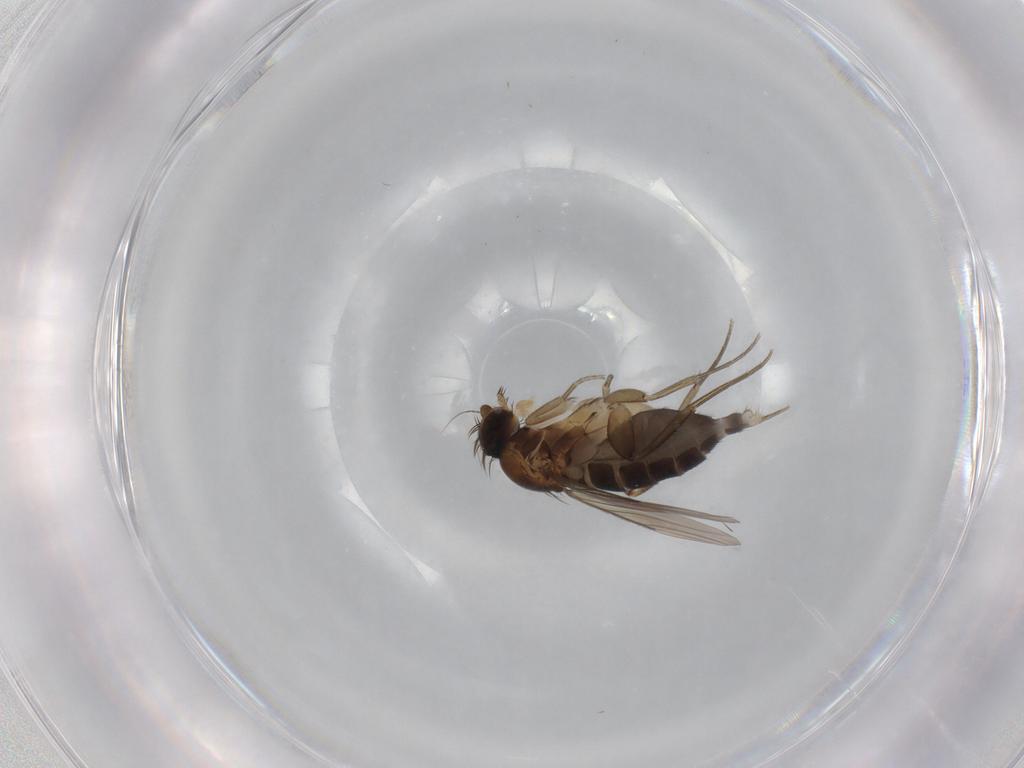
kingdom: Animalia
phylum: Arthropoda
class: Insecta
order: Diptera
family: Phoridae
